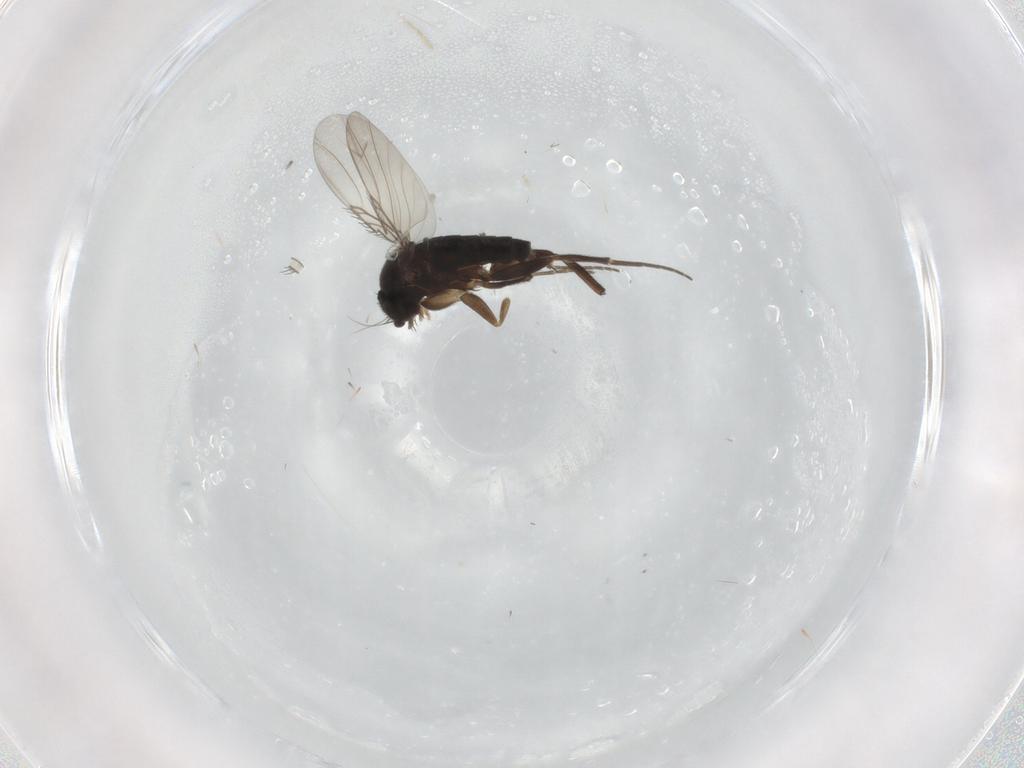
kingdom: Animalia
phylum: Arthropoda
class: Insecta
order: Diptera
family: Phoridae
